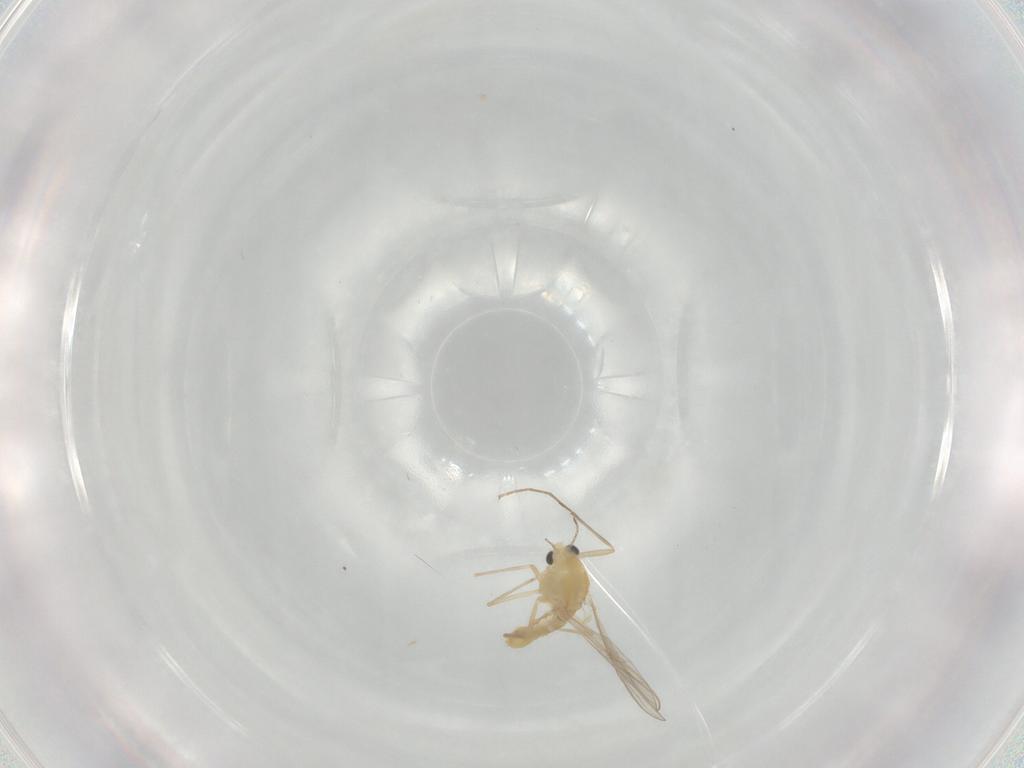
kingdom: Animalia
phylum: Arthropoda
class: Insecta
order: Diptera
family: Chironomidae
